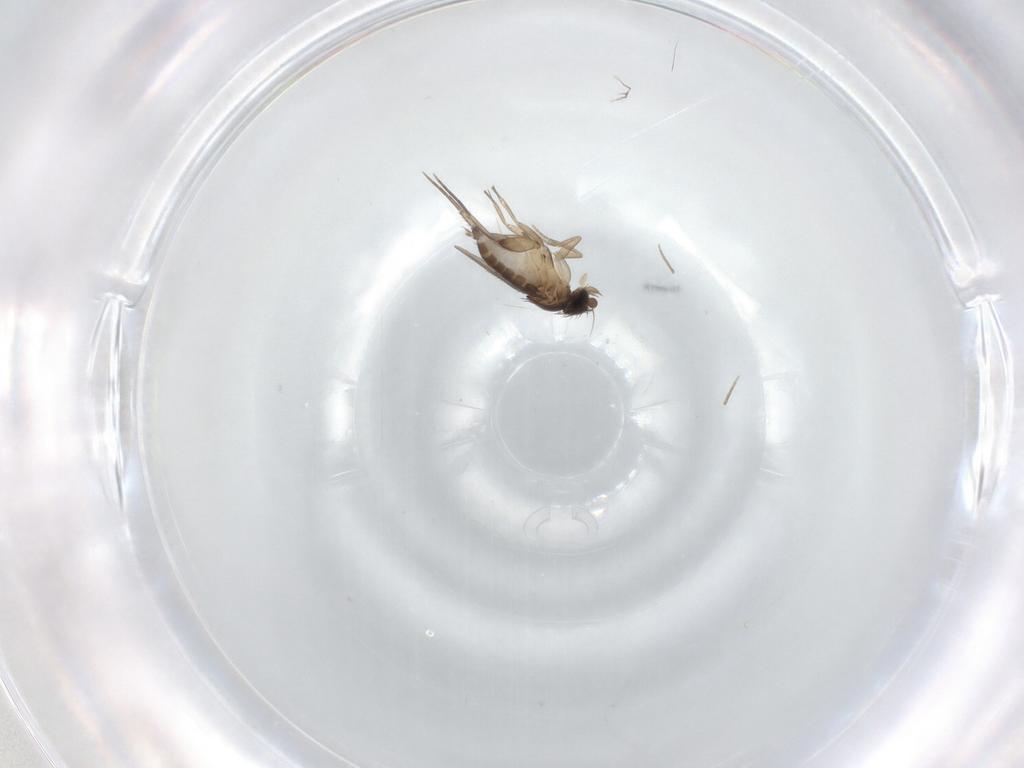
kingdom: Animalia
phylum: Arthropoda
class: Insecta
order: Diptera
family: Phoridae
